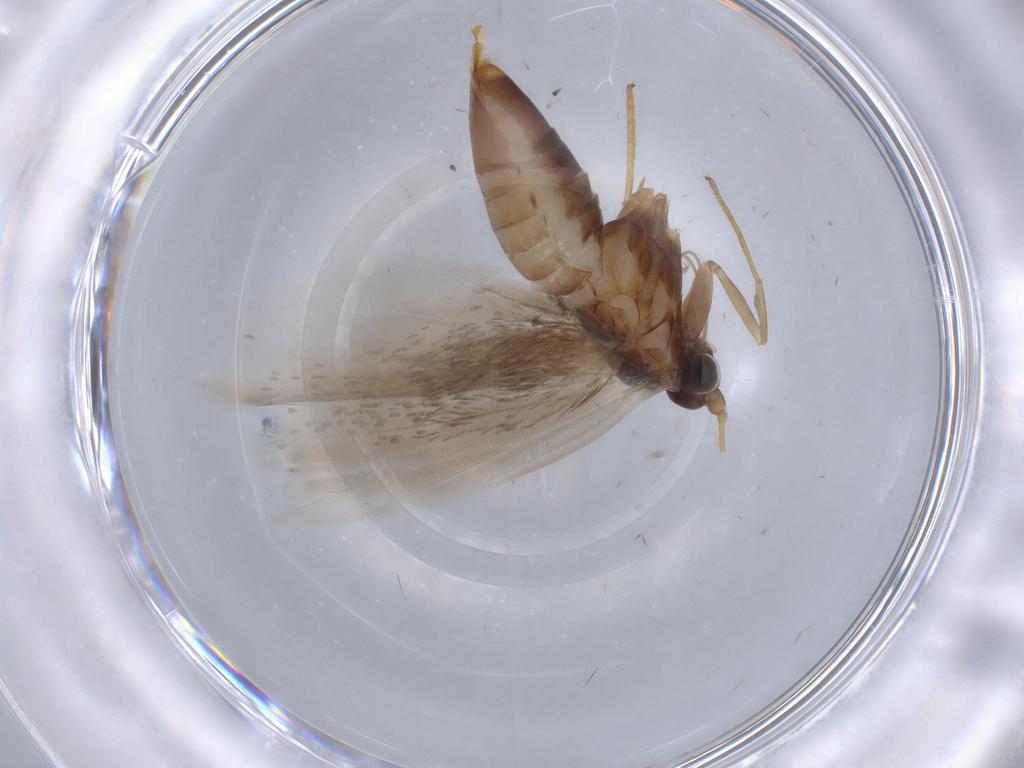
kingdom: Animalia
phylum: Arthropoda
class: Insecta
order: Lepidoptera
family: Adelidae
